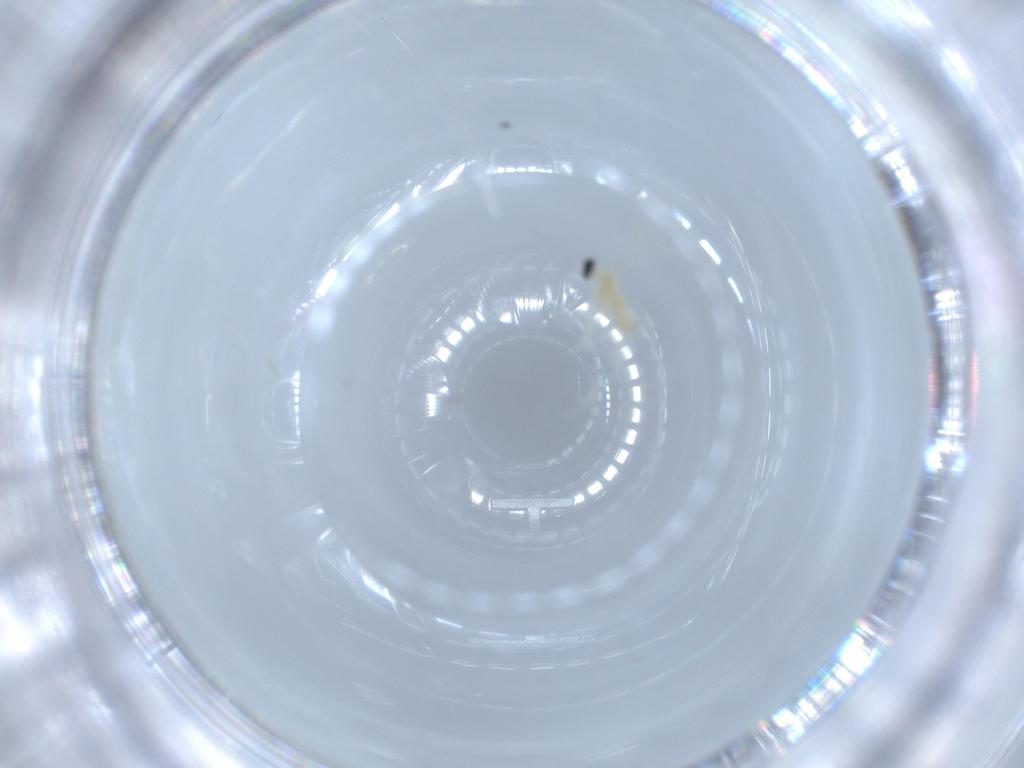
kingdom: Animalia
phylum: Arthropoda
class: Insecta
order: Diptera
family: Cecidomyiidae
